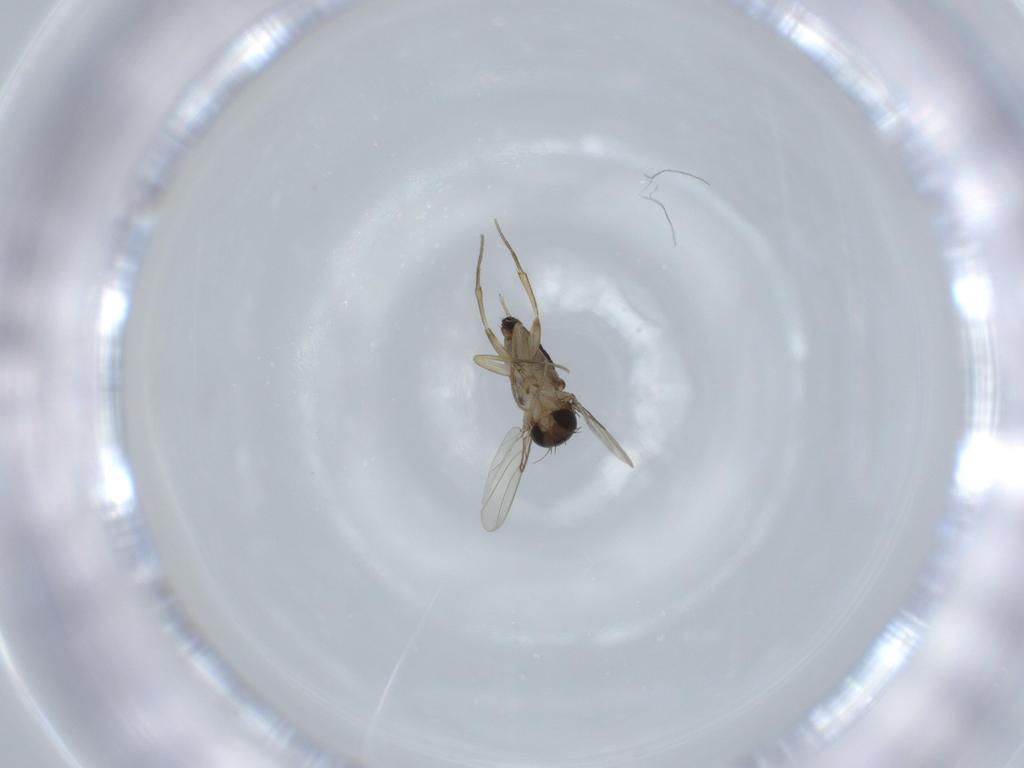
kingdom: Animalia
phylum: Arthropoda
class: Insecta
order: Diptera
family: Phoridae
